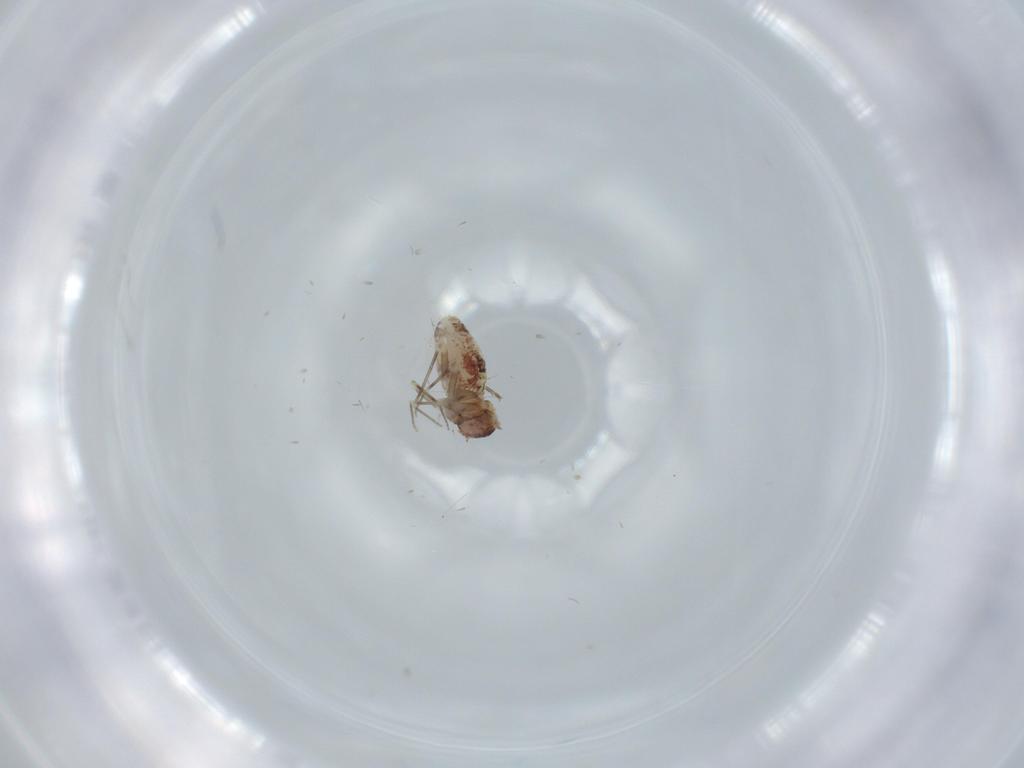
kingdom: Animalia
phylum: Arthropoda
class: Insecta
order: Psocodea
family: Musapsocidae
